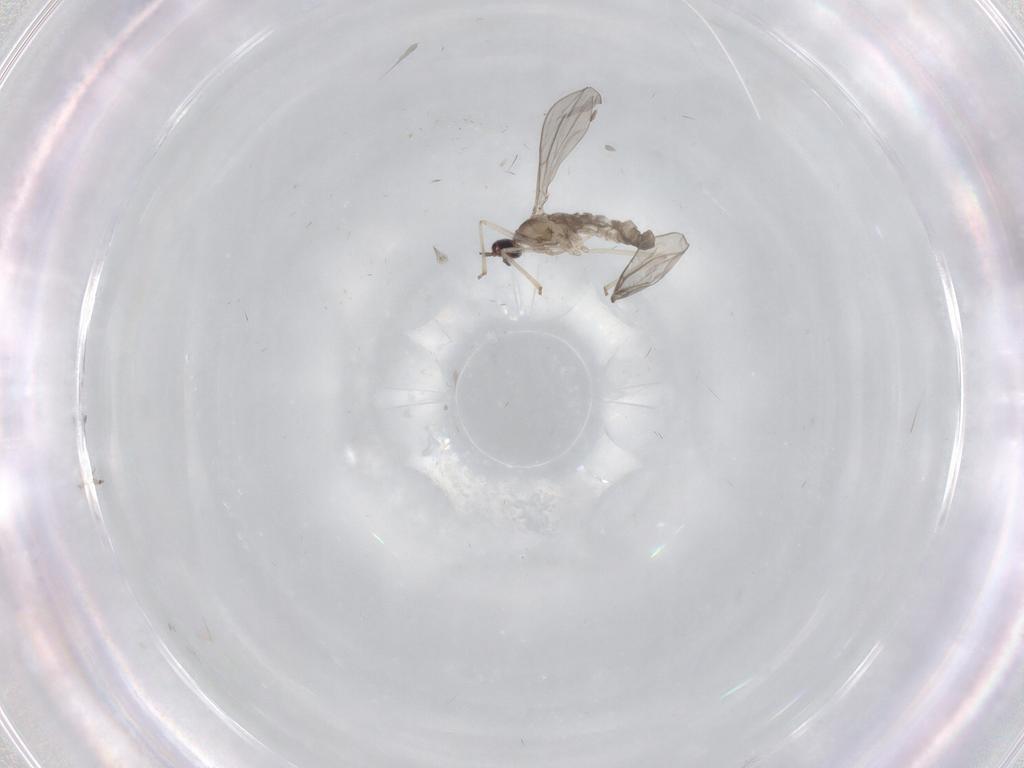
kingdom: Animalia
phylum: Arthropoda
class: Insecta
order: Diptera
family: Cecidomyiidae
